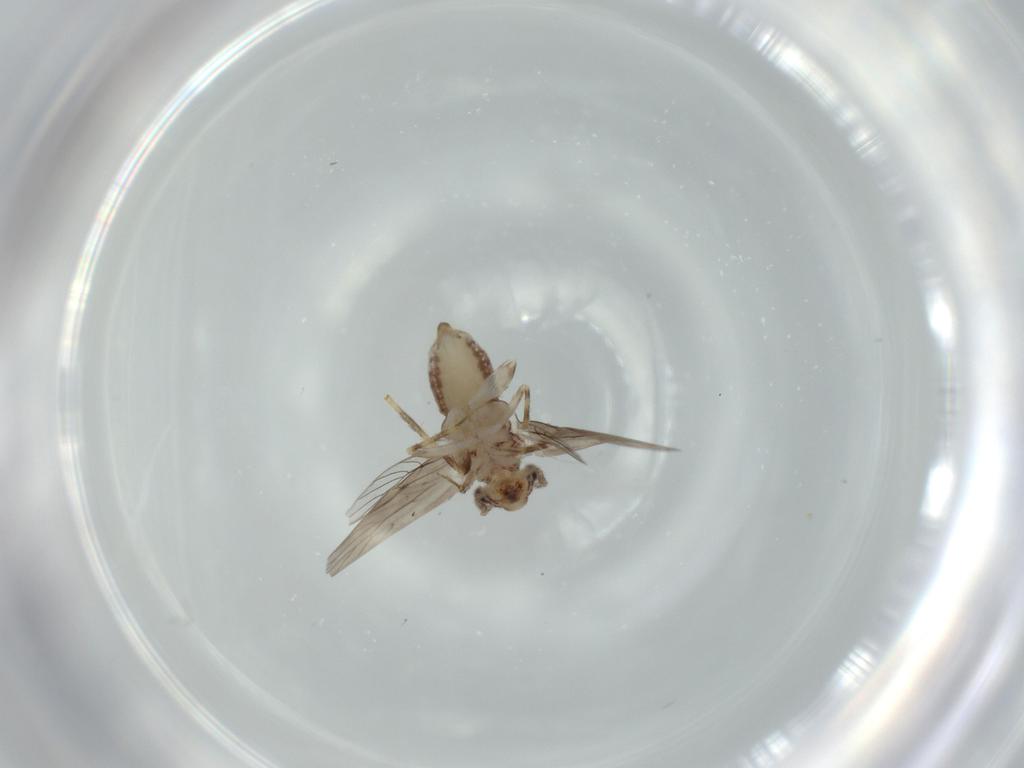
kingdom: Animalia
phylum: Arthropoda
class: Insecta
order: Psocodea
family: Lepidopsocidae
